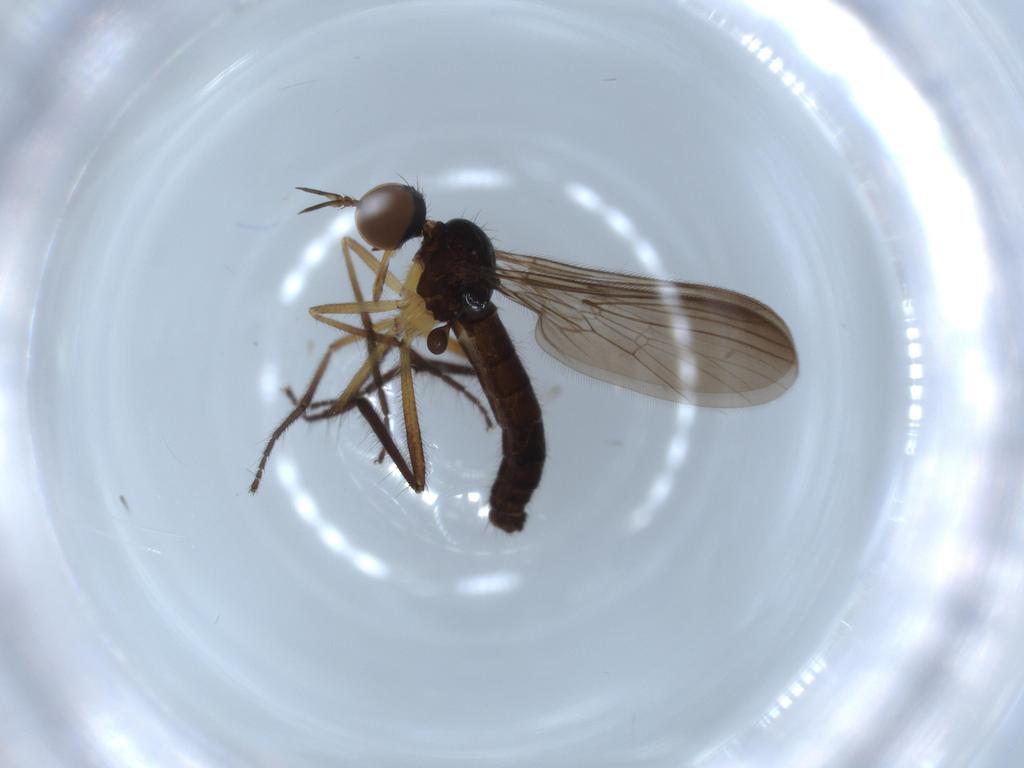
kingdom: Animalia
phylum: Arthropoda
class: Insecta
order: Diptera
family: Empididae
